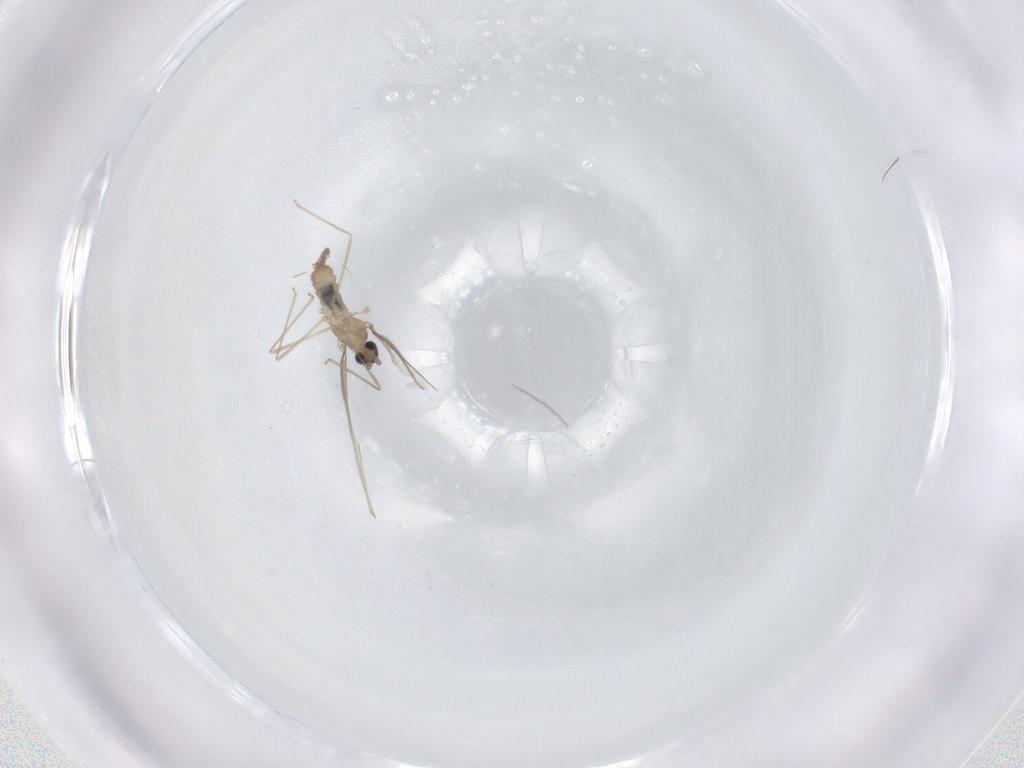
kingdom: Animalia
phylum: Arthropoda
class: Insecta
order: Diptera
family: Cecidomyiidae
